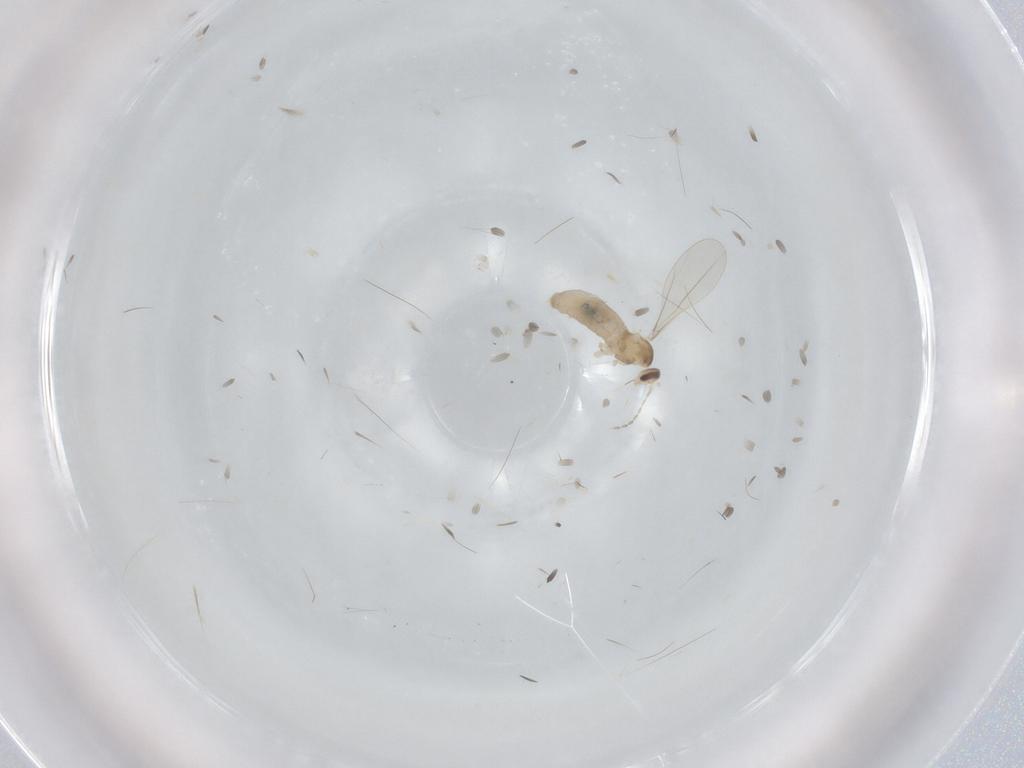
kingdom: Animalia
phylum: Arthropoda
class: Insecta
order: Diptera
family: Cecidomyiidae
